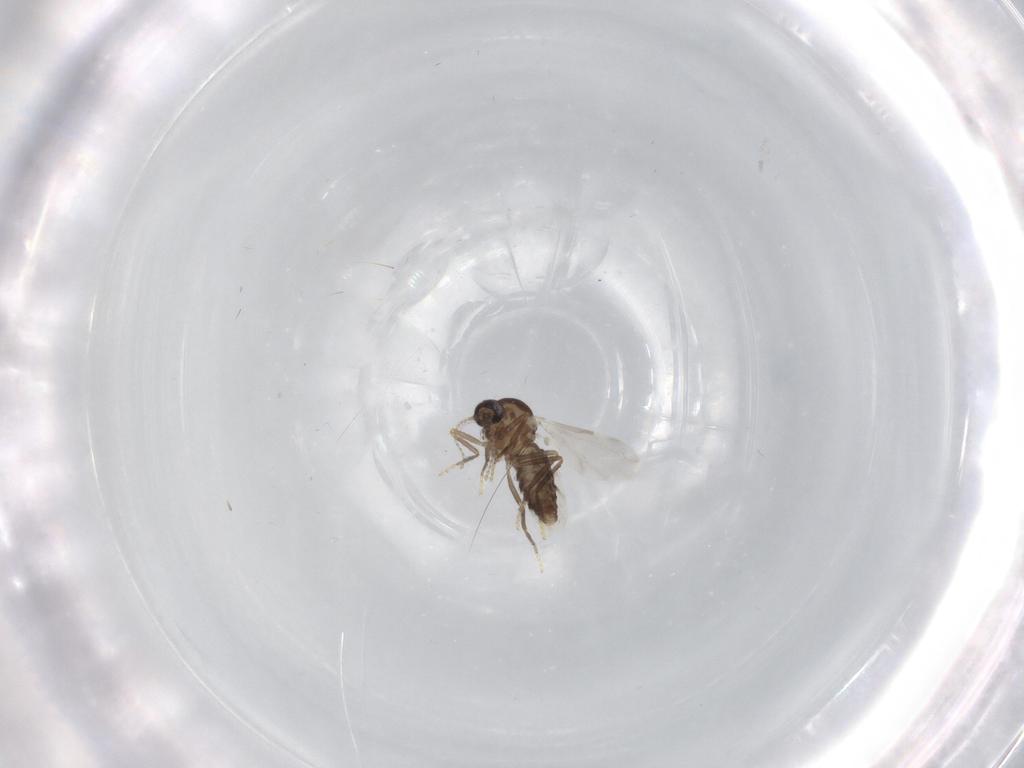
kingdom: Animalia
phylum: Arthropoda
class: Insecta
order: Diptera
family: Ceratopogonidae
